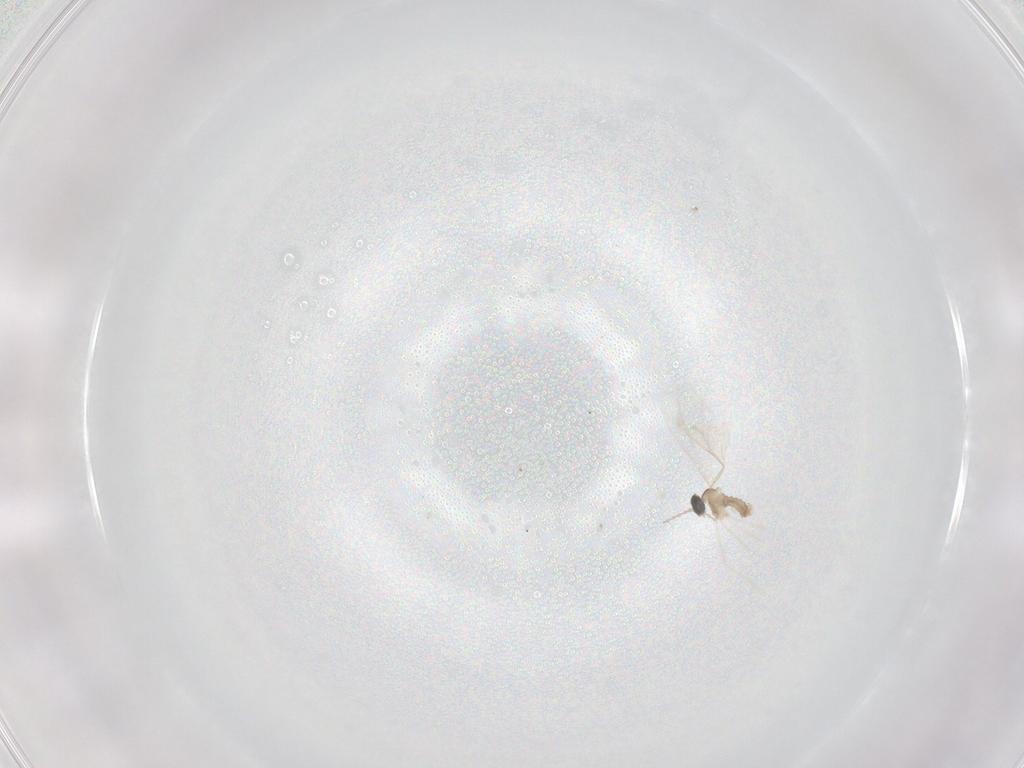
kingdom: Animalia
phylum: Arthropoda
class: Insecta
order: Diptera
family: Cecidomyiidae
